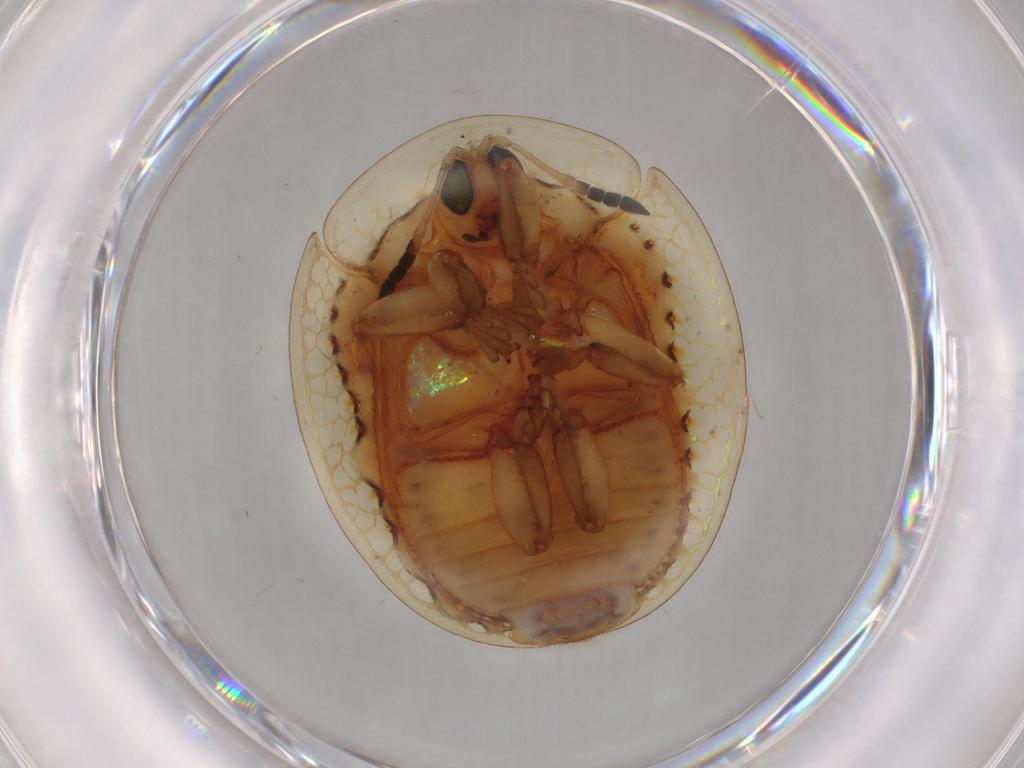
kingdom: Animalia
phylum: Arthropoda
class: Insecta
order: Coleoptera
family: Chrysomelidae
